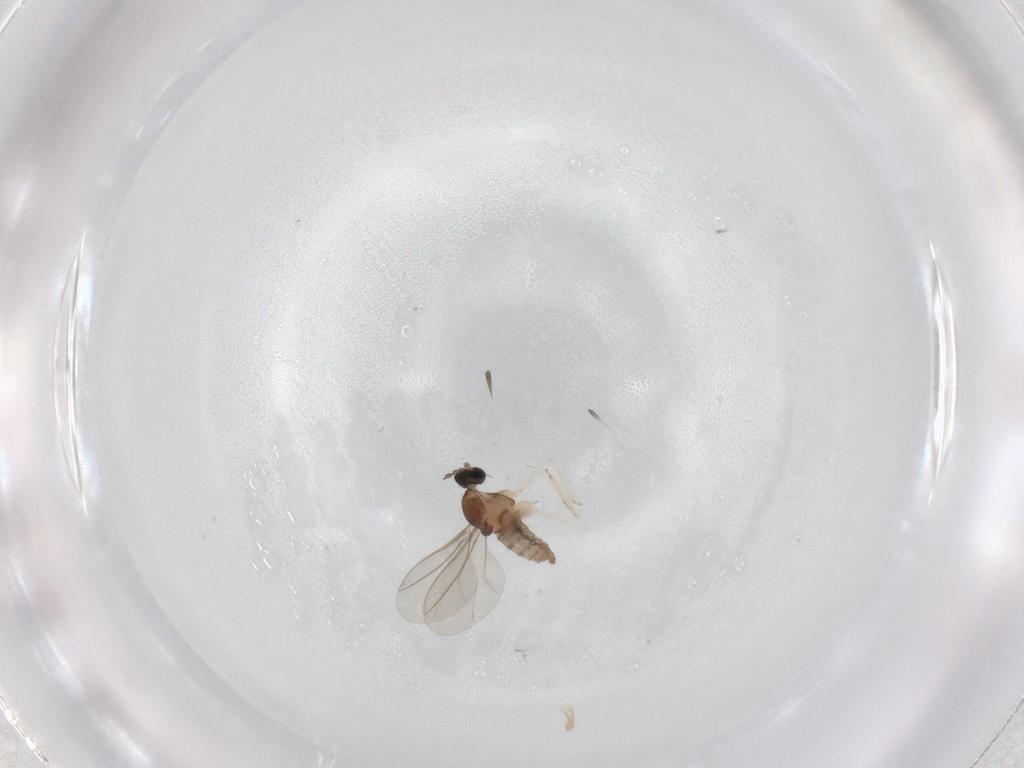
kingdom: Animalia
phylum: Arthropoda
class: Insecta
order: Diptera
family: Cecidomyiidae
